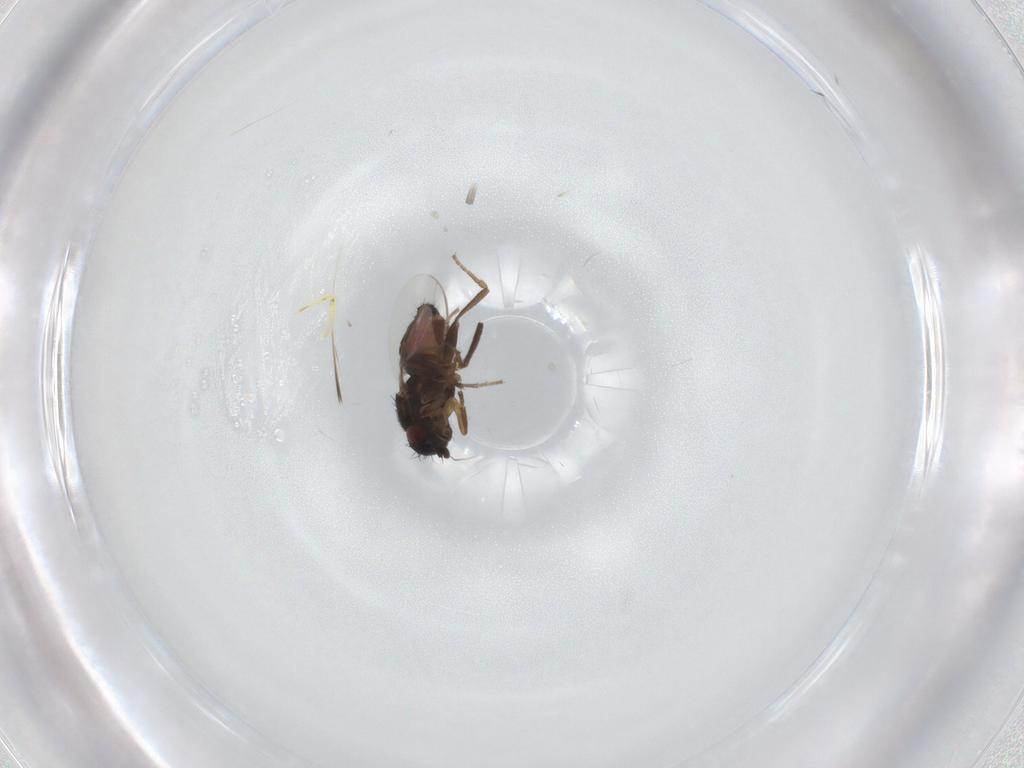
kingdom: Animalia
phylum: Arthropoda
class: Insecta
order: Diptera
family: Sphaeroceridae
